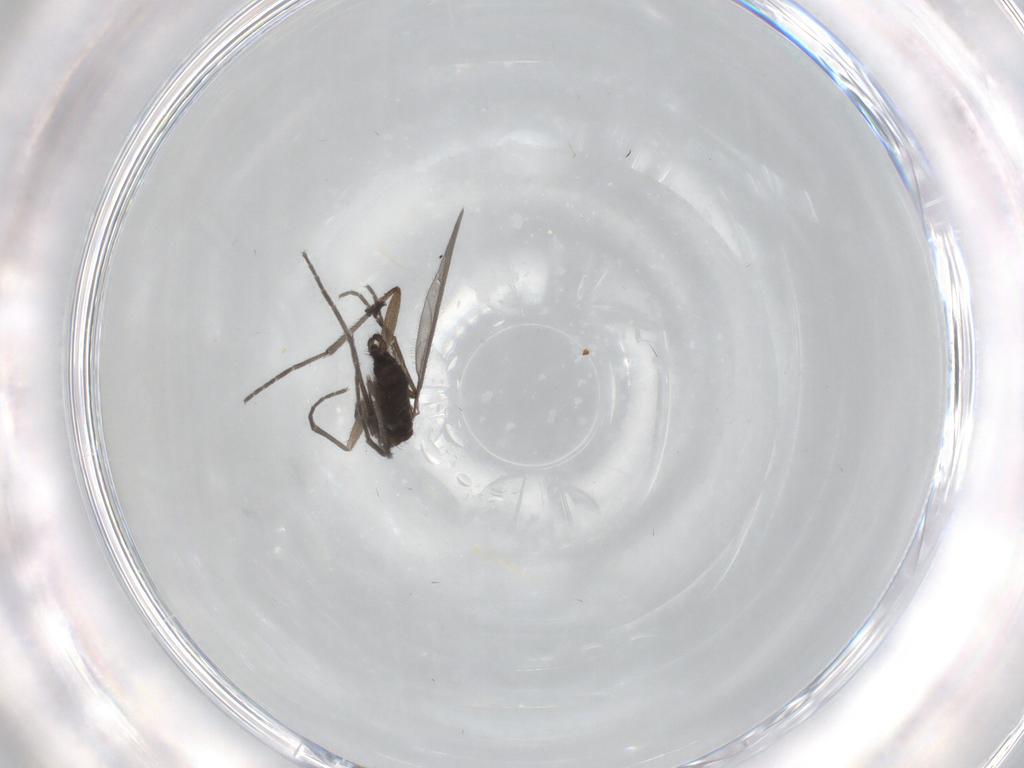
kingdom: Animalia
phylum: Arthropoda
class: Insecta
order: Diptera
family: Sciaridae
